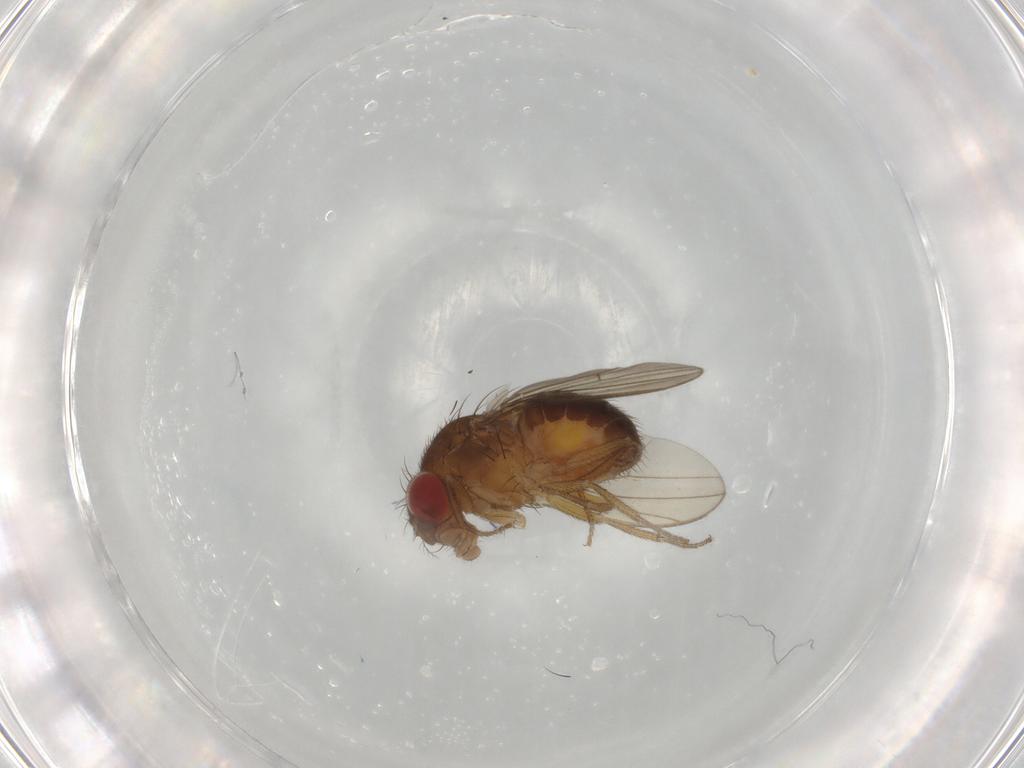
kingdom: Animalia
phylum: Arthropoda
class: Insecta
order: Diptera
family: Drosophilidae
